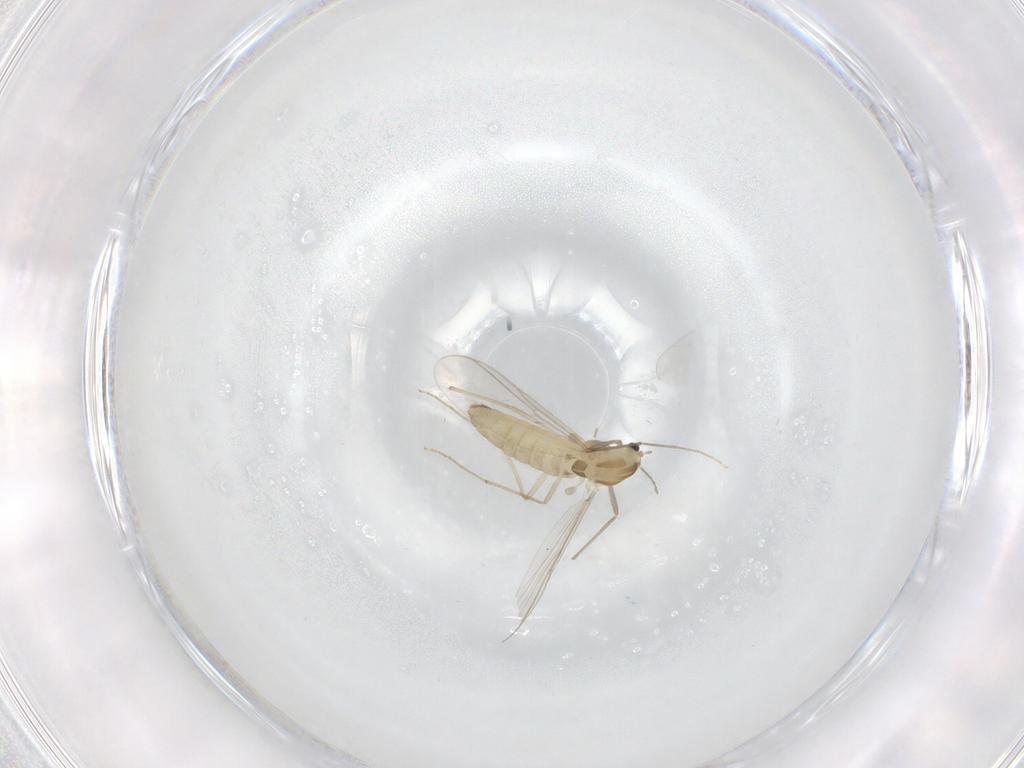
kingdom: Animalia
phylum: Arthropoda
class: Insecta
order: Diptera
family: Chironomidae
